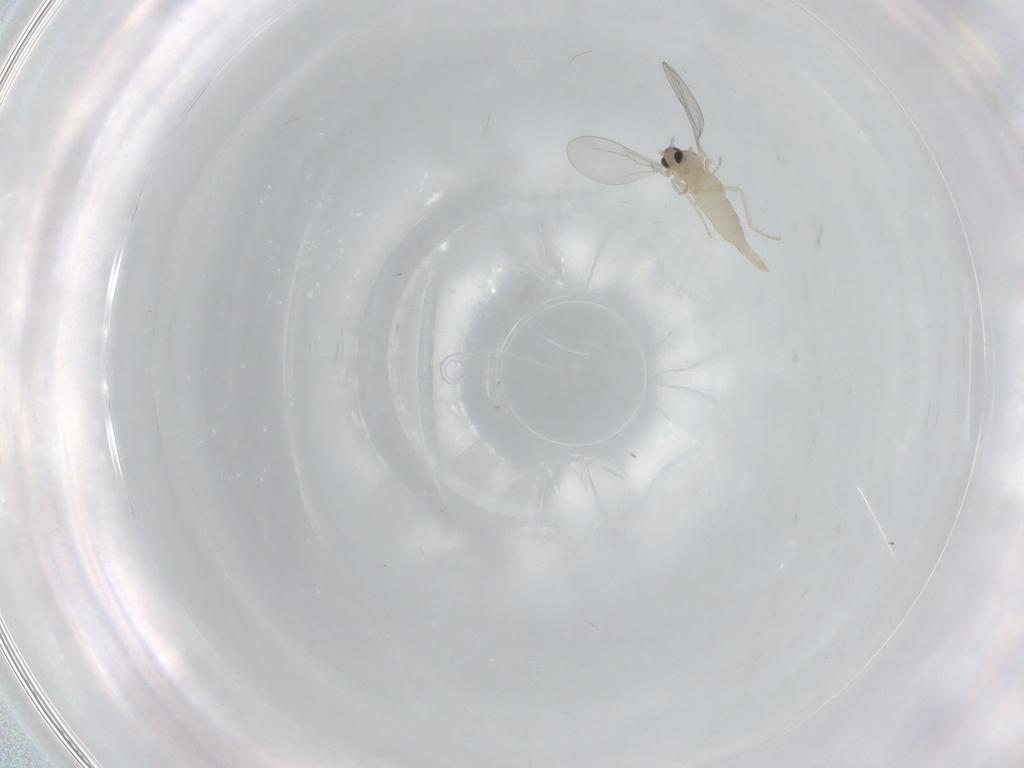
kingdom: Animalia
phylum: Arthropoda
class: Insecta
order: Diptera
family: Cecidomyiidae
